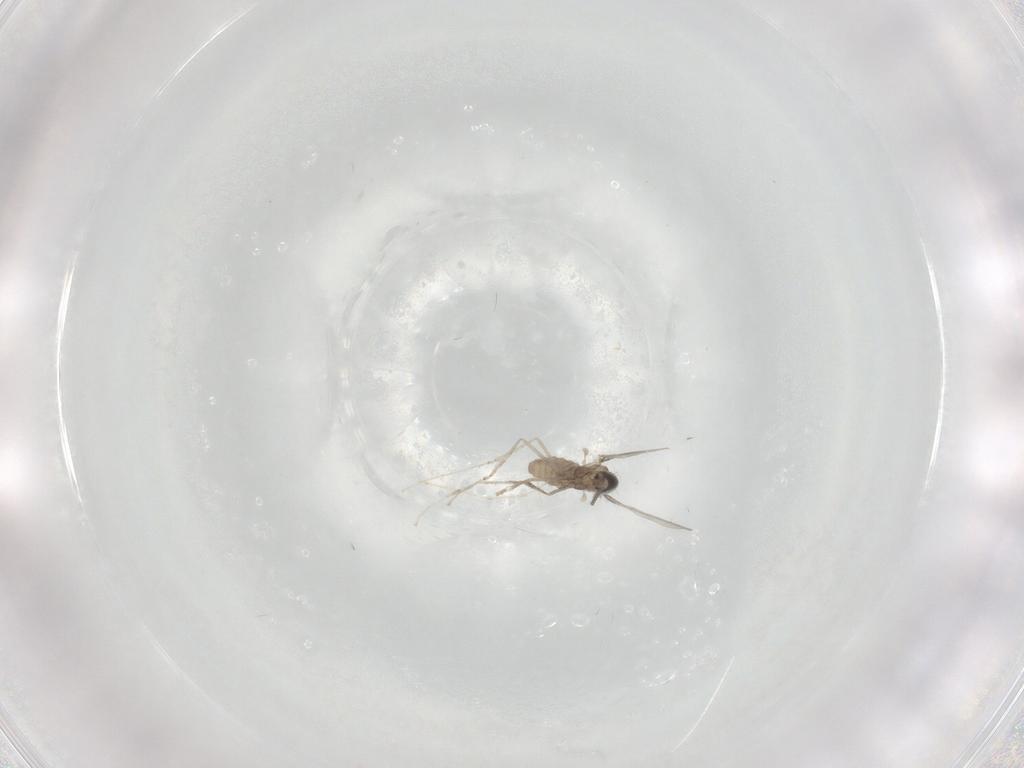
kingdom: Animalia
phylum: Arthropoda
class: Insecta
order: Diptera
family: Cecidomyiidae
